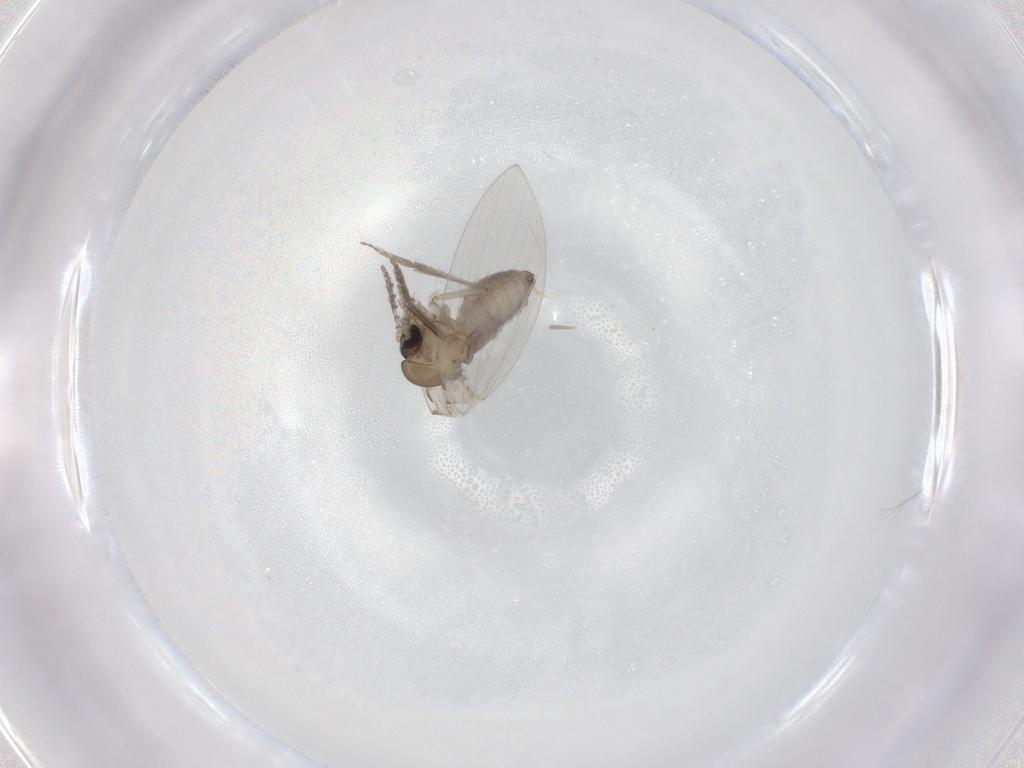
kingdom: Animalia
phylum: Arthropoda
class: Insecta
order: Diptera
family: Psychodidae
